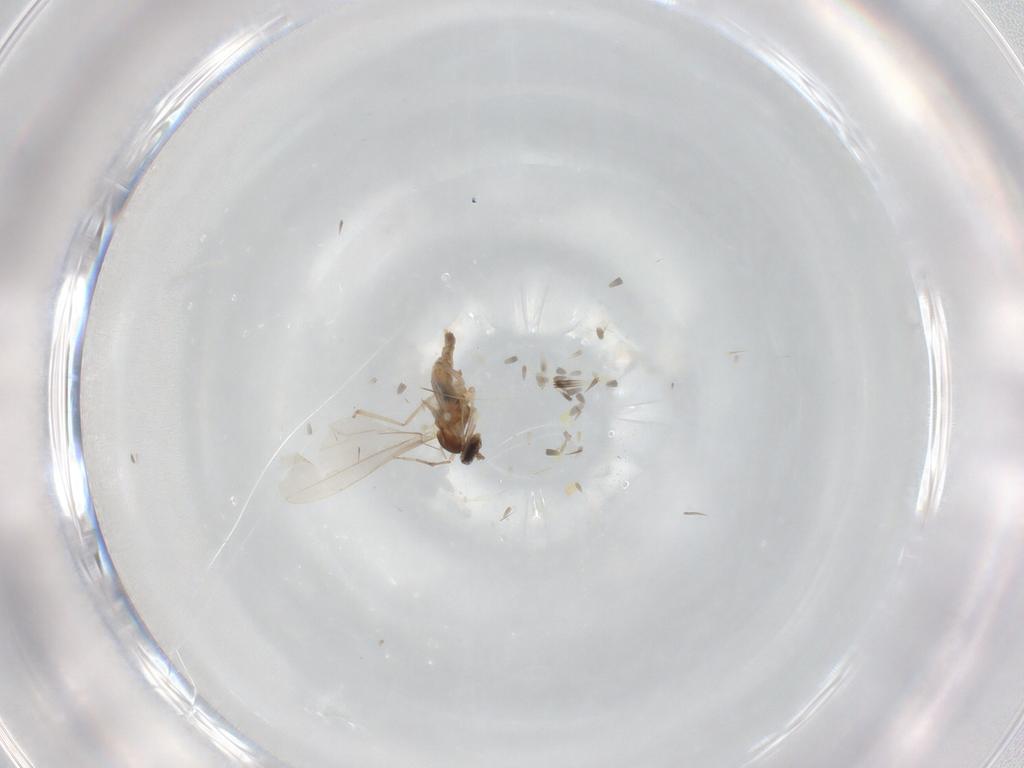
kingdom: Animalia
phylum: Arthropoda
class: Insecta
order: Diptera
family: Cecidomyiidae
